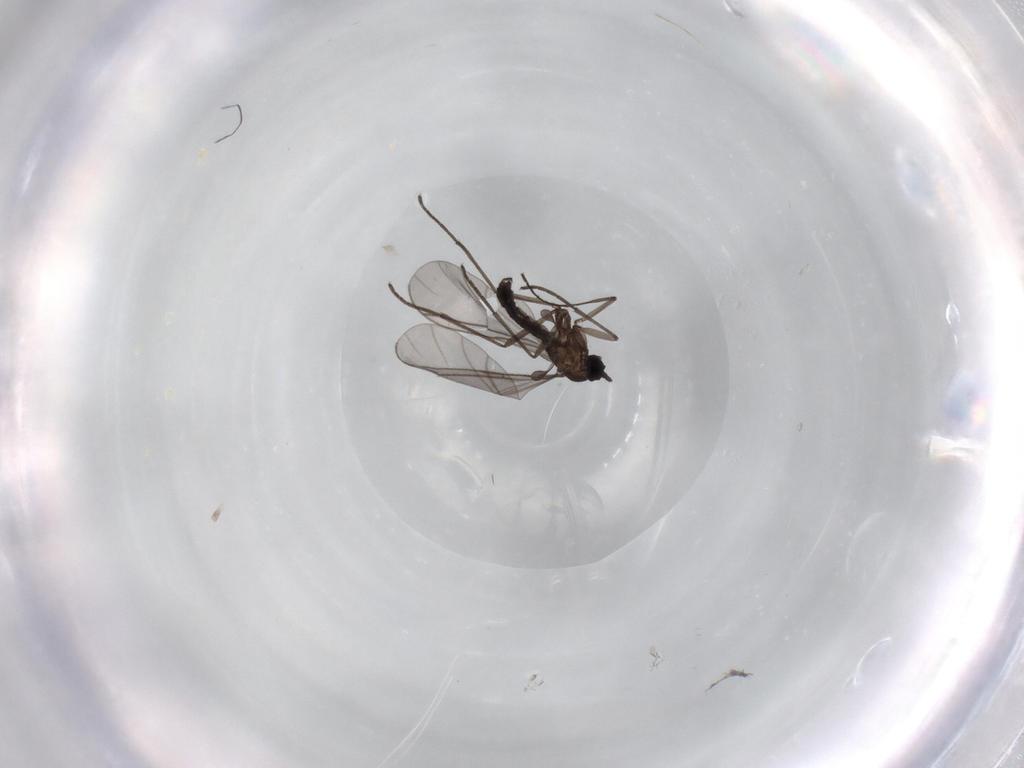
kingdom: Animalia
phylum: Arthropoda
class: Insecta
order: Diptera
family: Sciaridae
